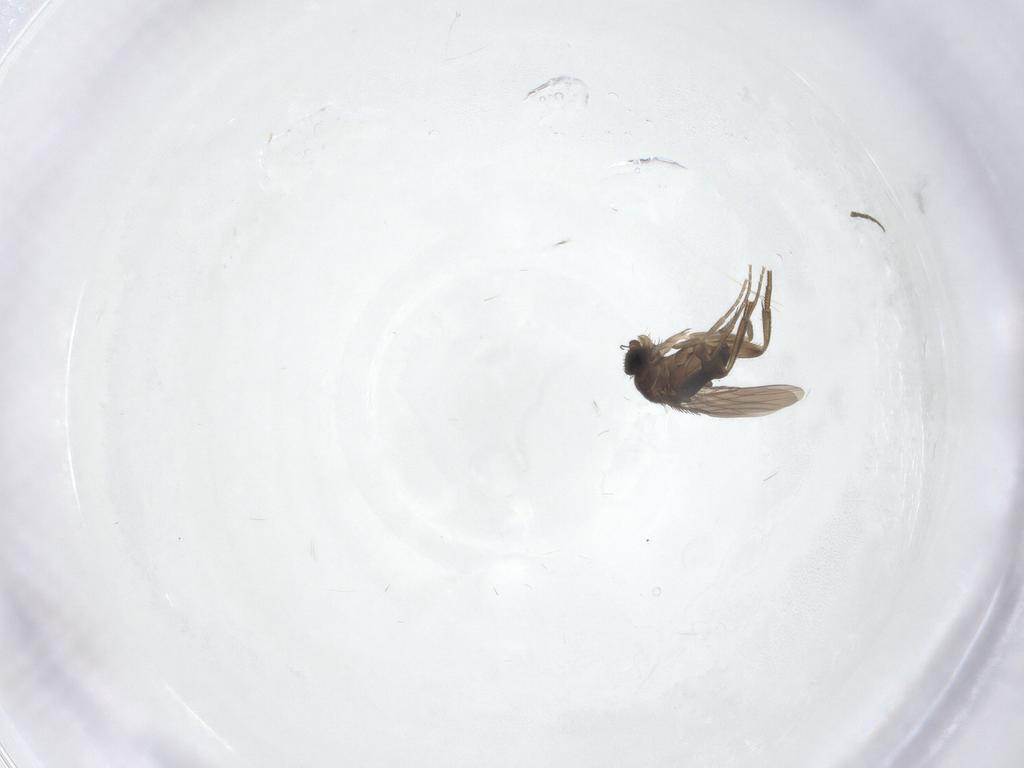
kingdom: Animalia
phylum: Arthropoda
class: Insecta
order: Diptera
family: Phoridae
